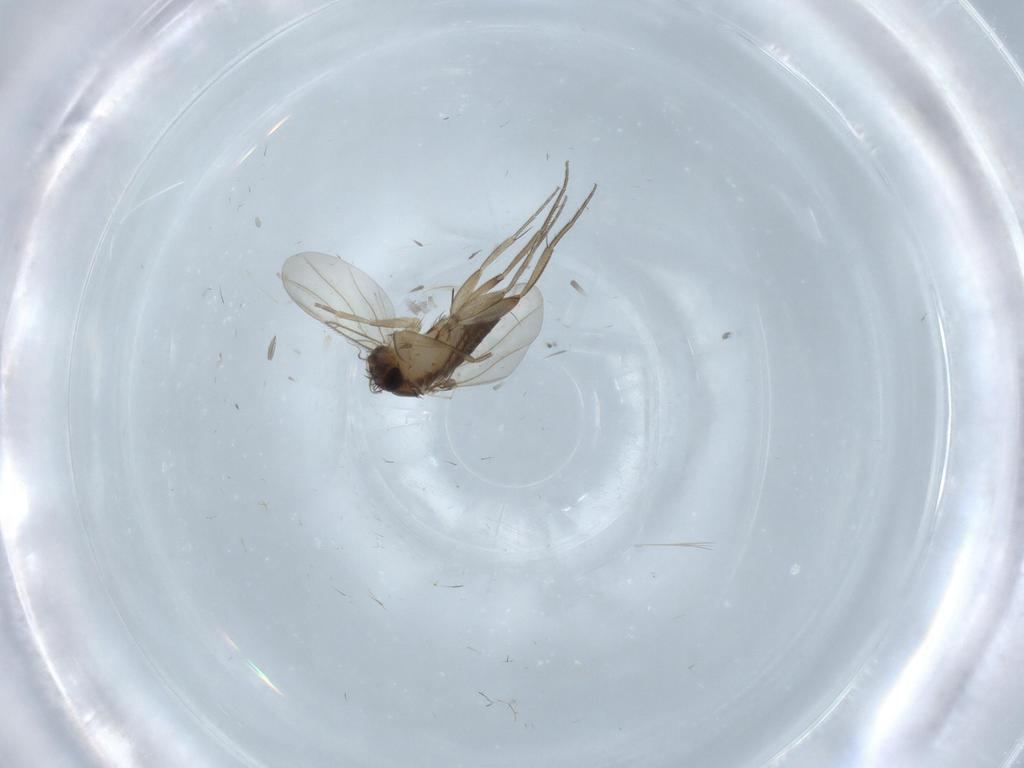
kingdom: Animalia
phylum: Arthropoda
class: Insecta
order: Diptera
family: Phoridae
